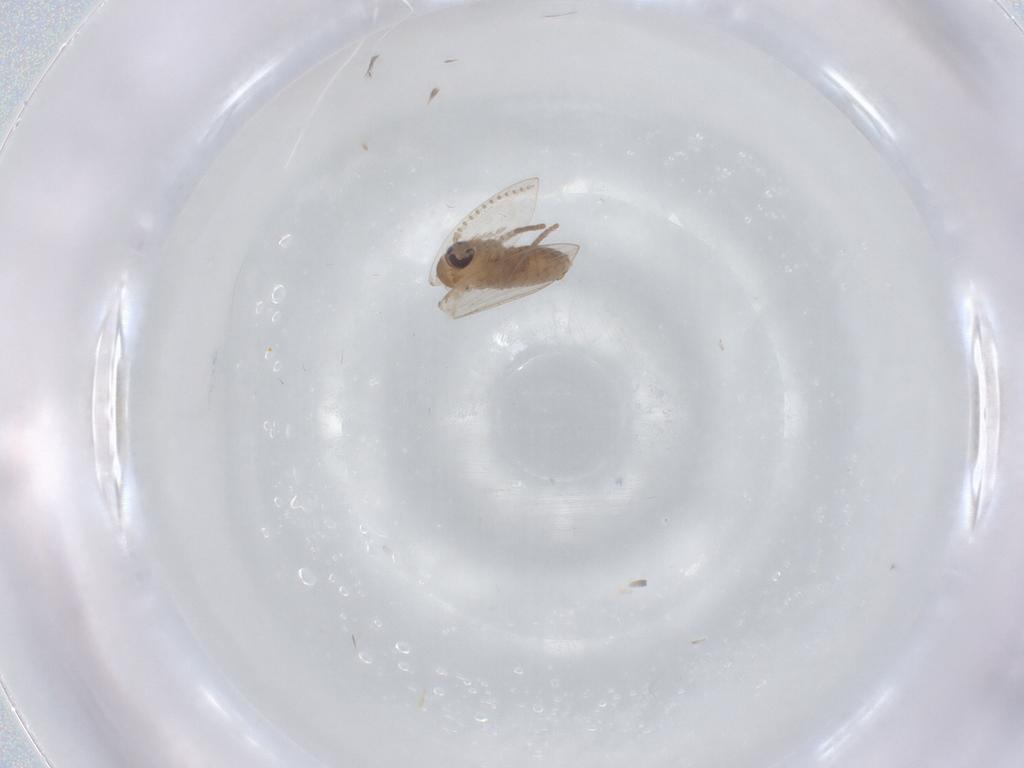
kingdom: Animalia
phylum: Arthropoda
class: Insecta
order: Diptera
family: Psychodidae
